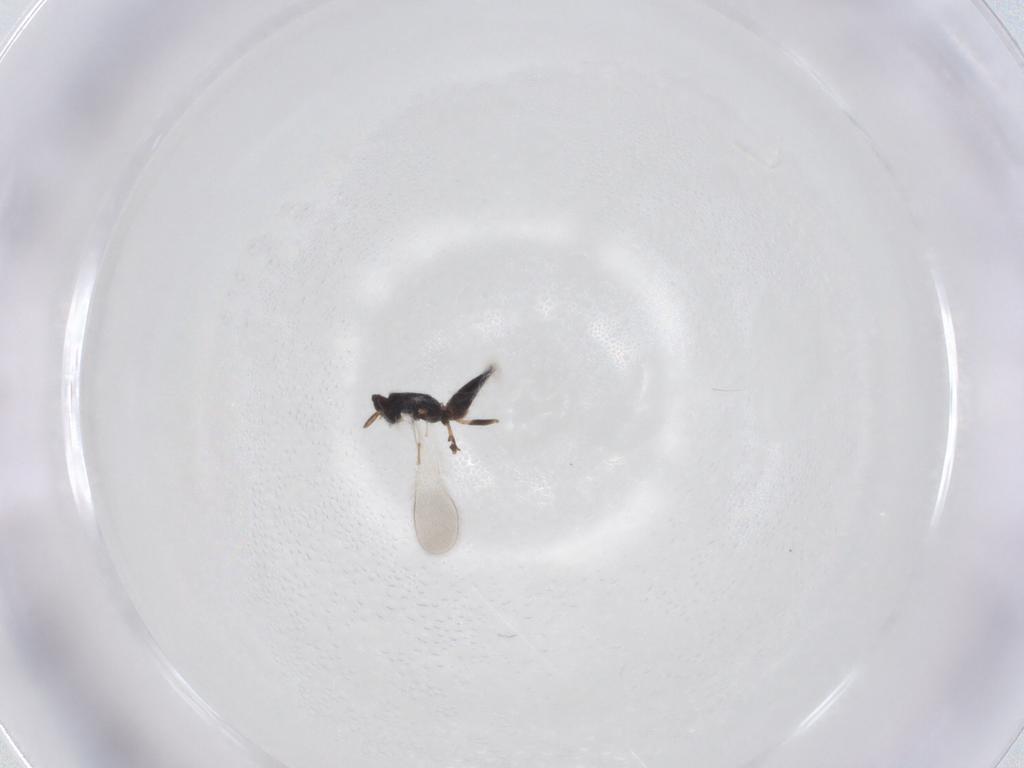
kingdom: Animalia
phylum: Arthropoda
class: Insecta
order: Hymenoptera
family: Mymaridae
